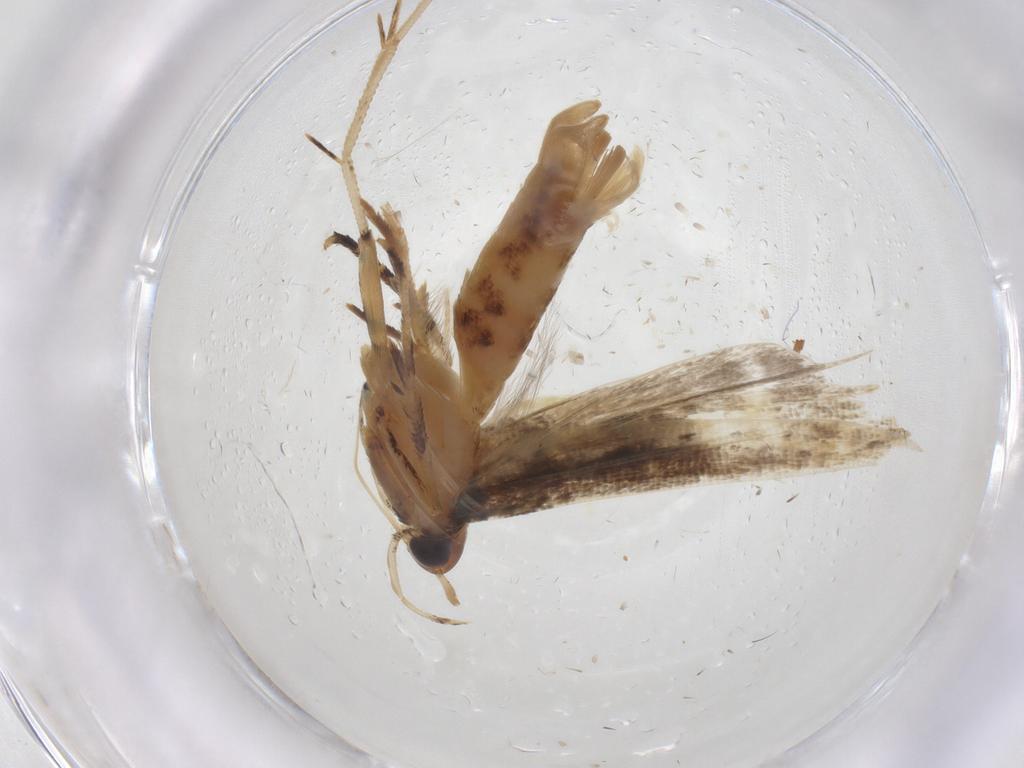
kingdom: Animalia
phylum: Arthropoda
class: Insecta
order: Lepidoptera
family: Gelechiidae
